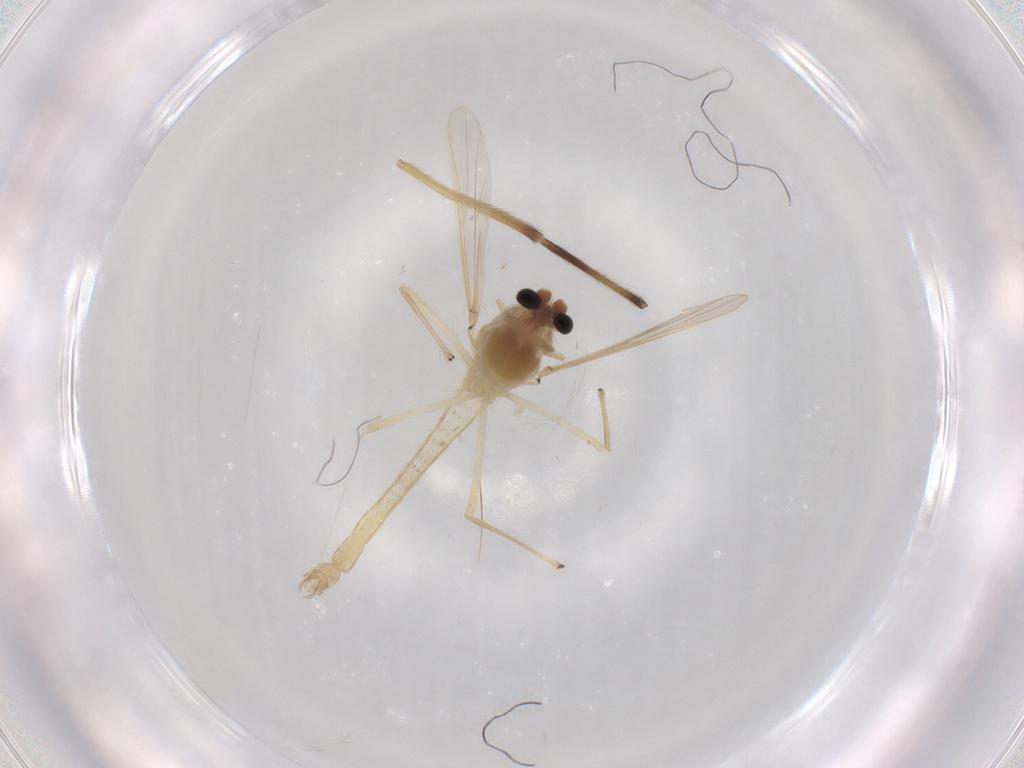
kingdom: Animalia
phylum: Arthropoda
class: Insecta
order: Diptera
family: Chironomidae
